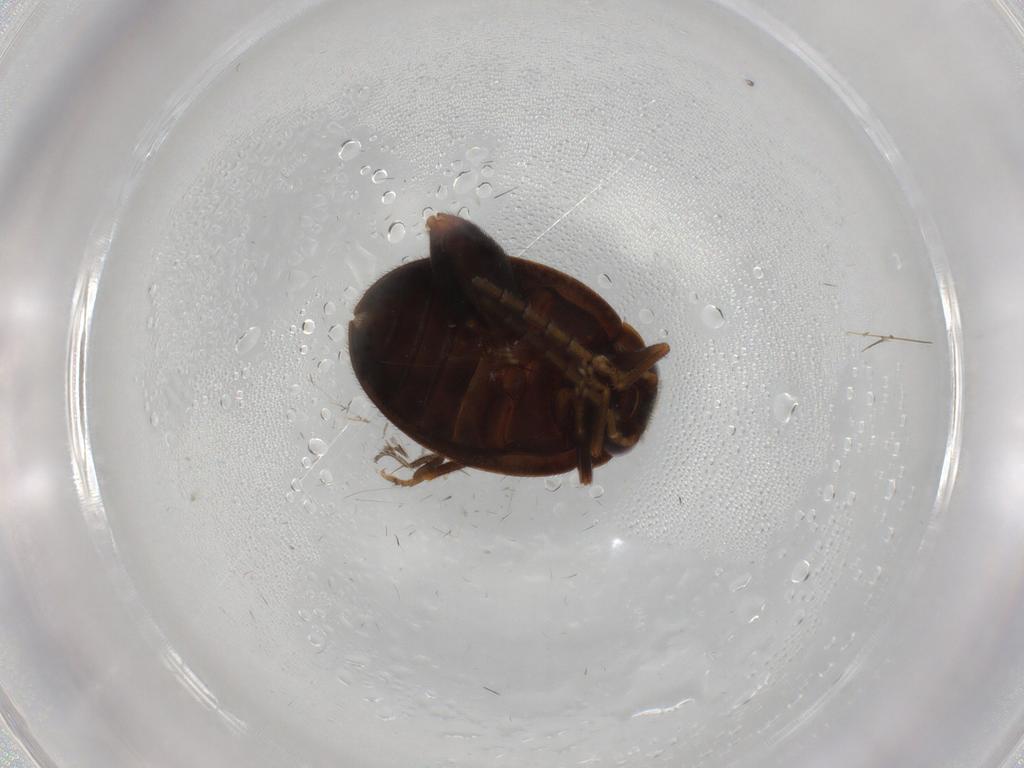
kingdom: Animalia
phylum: Arthropoda
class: Insecta
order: Coleoptera
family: Scirtidae
